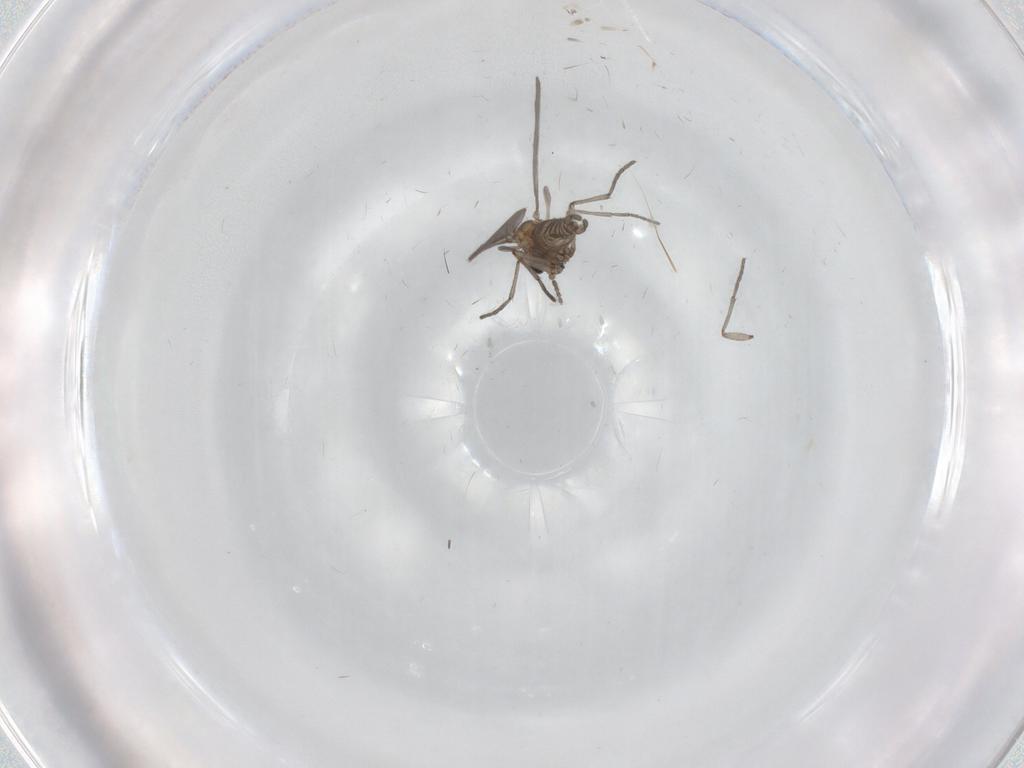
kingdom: Animalia
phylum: Arthropoda
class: Insecta
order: Diptera
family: Sciaridae
